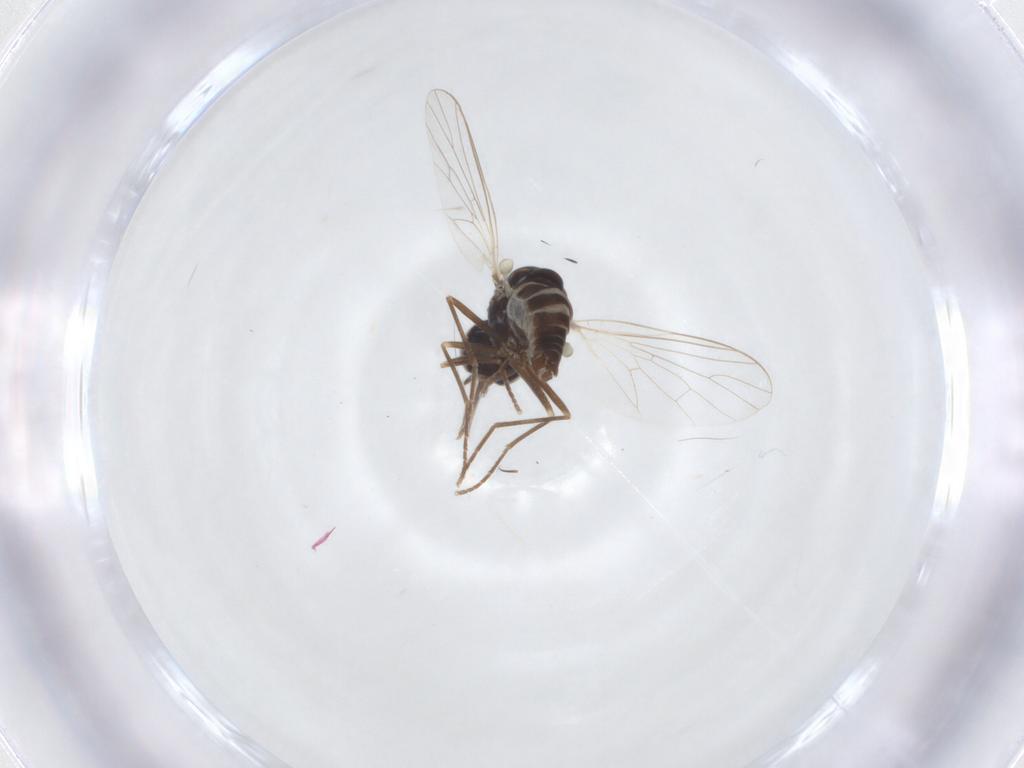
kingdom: Animalia
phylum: Arthropoda
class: Insecta
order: Diptera
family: Bombyliidae
